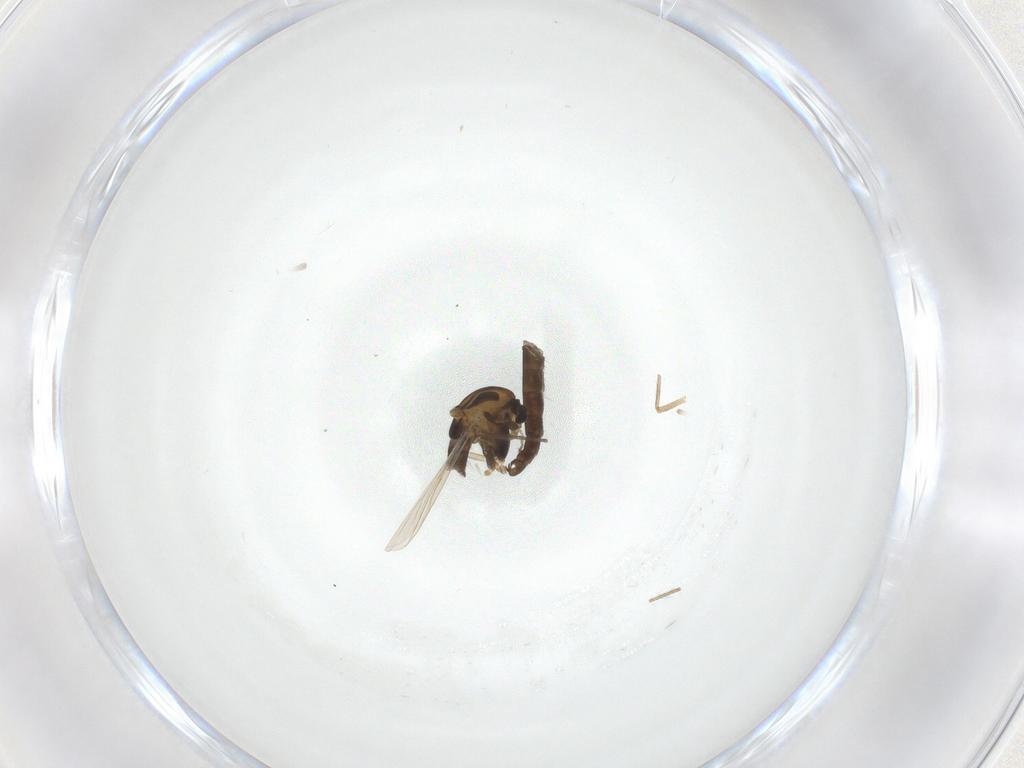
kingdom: Animalia
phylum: Arthropoda
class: Insecta
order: Diptera
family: Chironomidae
